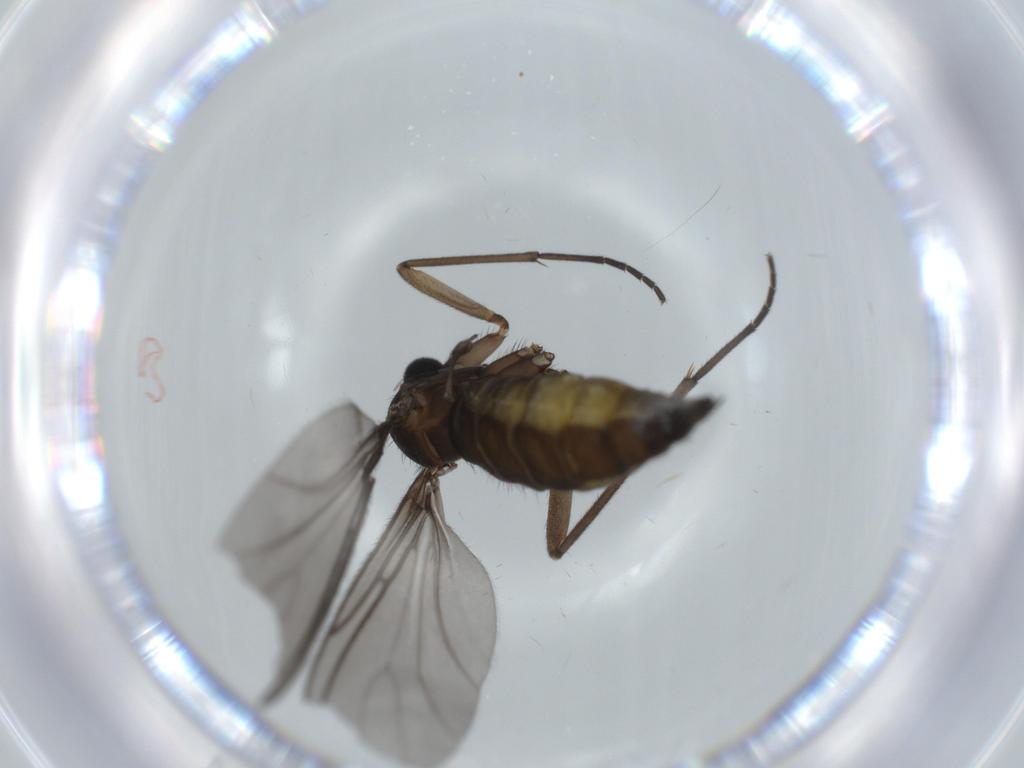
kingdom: Animalia
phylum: Arthropoda
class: Insecta
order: Diptera
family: Sciaridae
